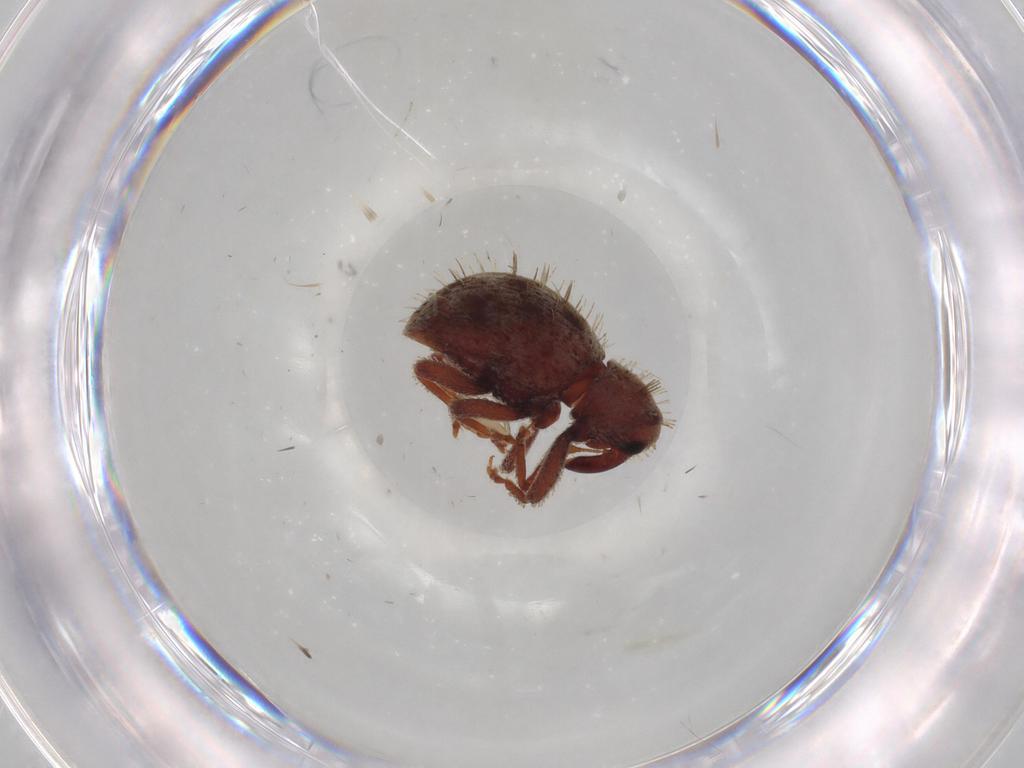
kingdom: Animalia
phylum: Arthropoda
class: Insecta
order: Coleoptera
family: Curculionidae
